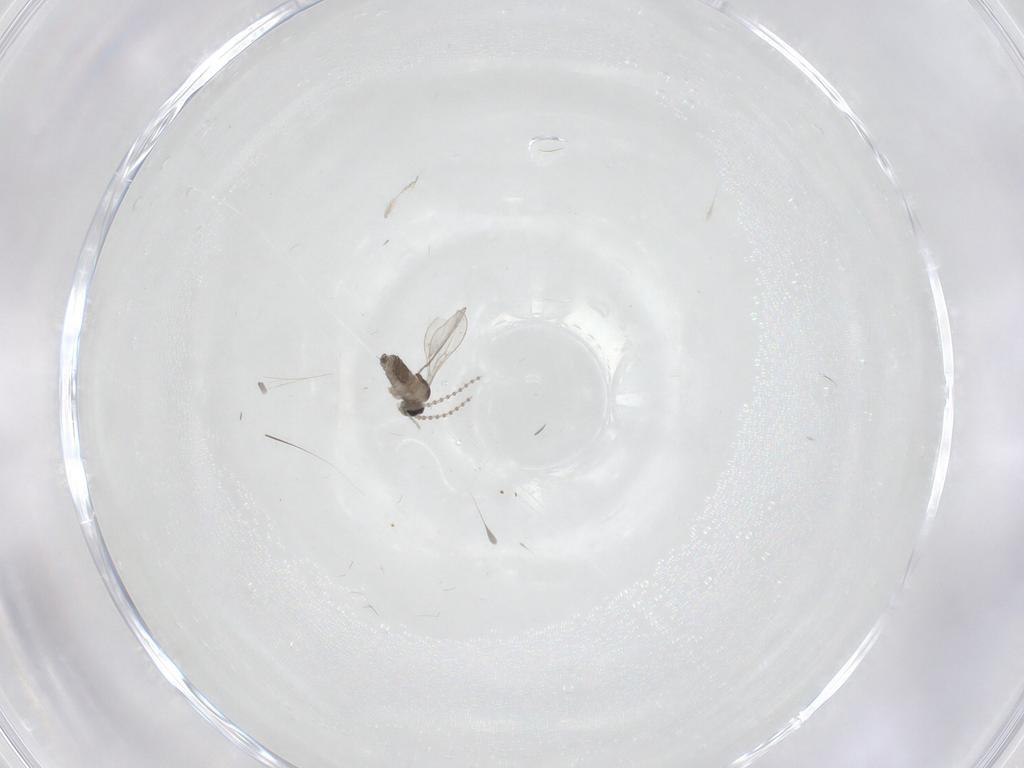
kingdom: Animalia
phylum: Arthropoda
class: Insecta
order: Diptera
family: Cecidomyiidae
